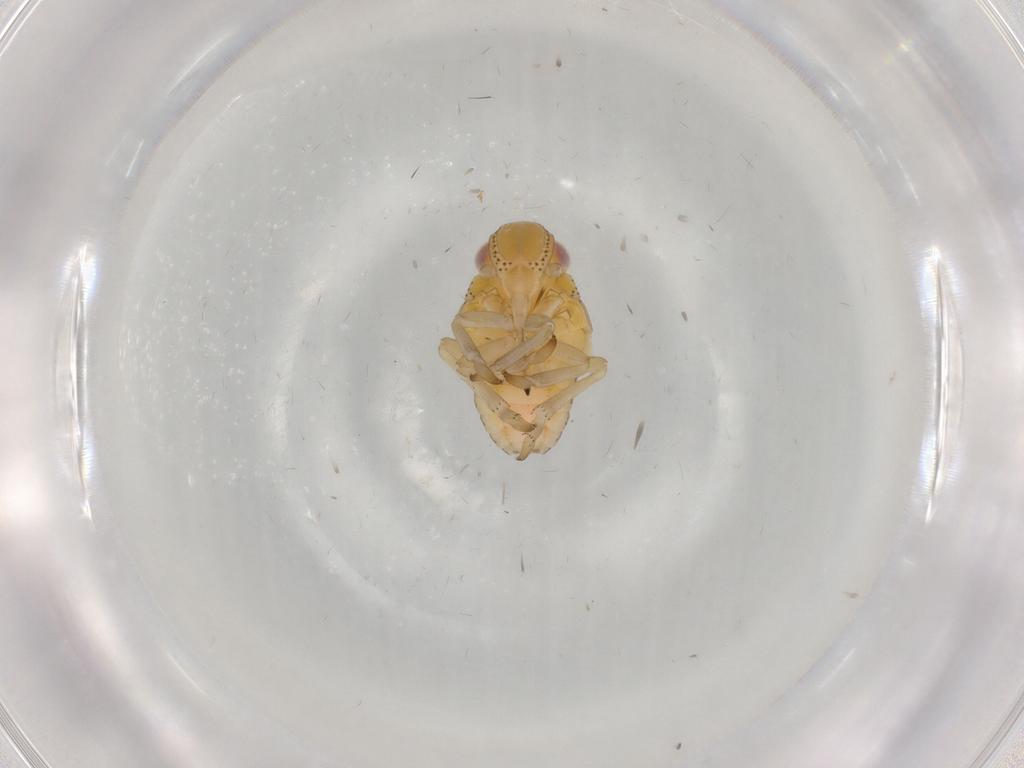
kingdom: Animalia
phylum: Arthropoda
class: Insecta
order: Hemiptera
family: Tropiduchidae
